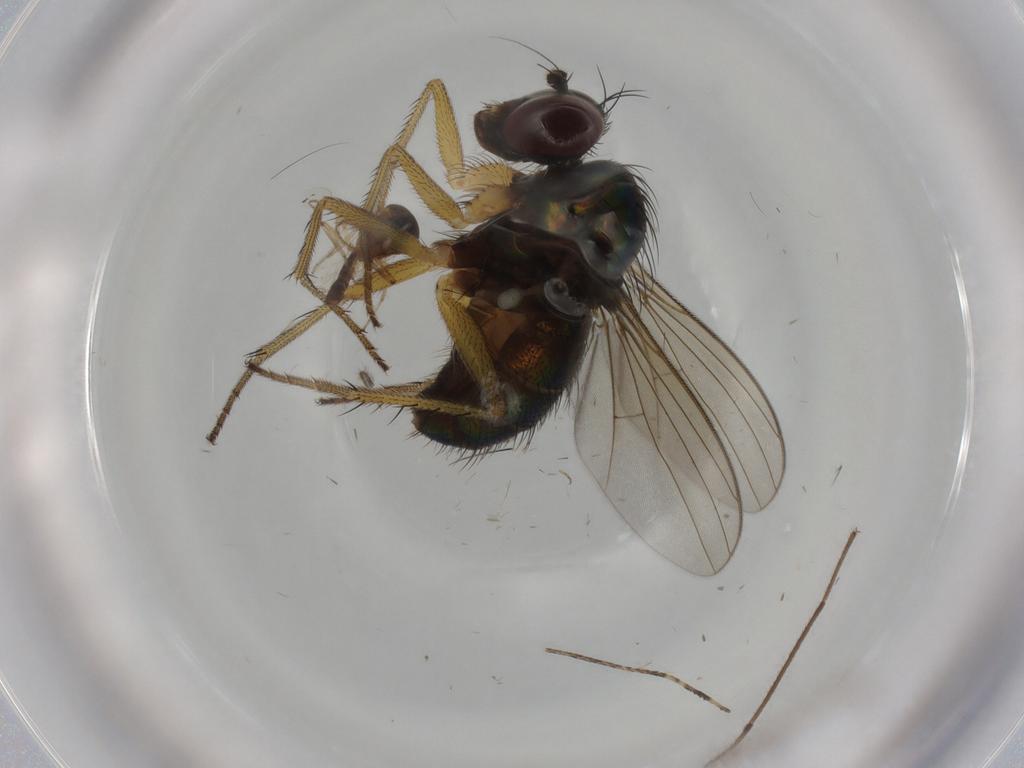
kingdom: Animalia
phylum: Arthropoda
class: Insecta
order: Diptera
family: Dolichopodidae
